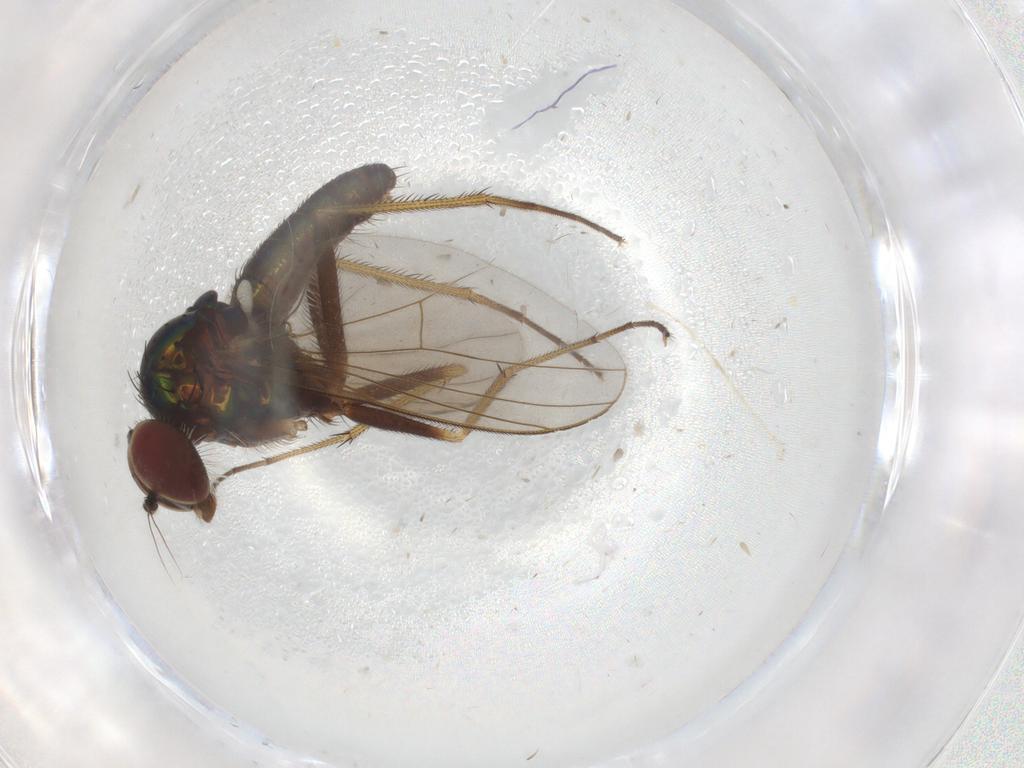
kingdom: Animalia
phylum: Arthropoda
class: Insecta
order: Diptera
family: Dolichopodidae
